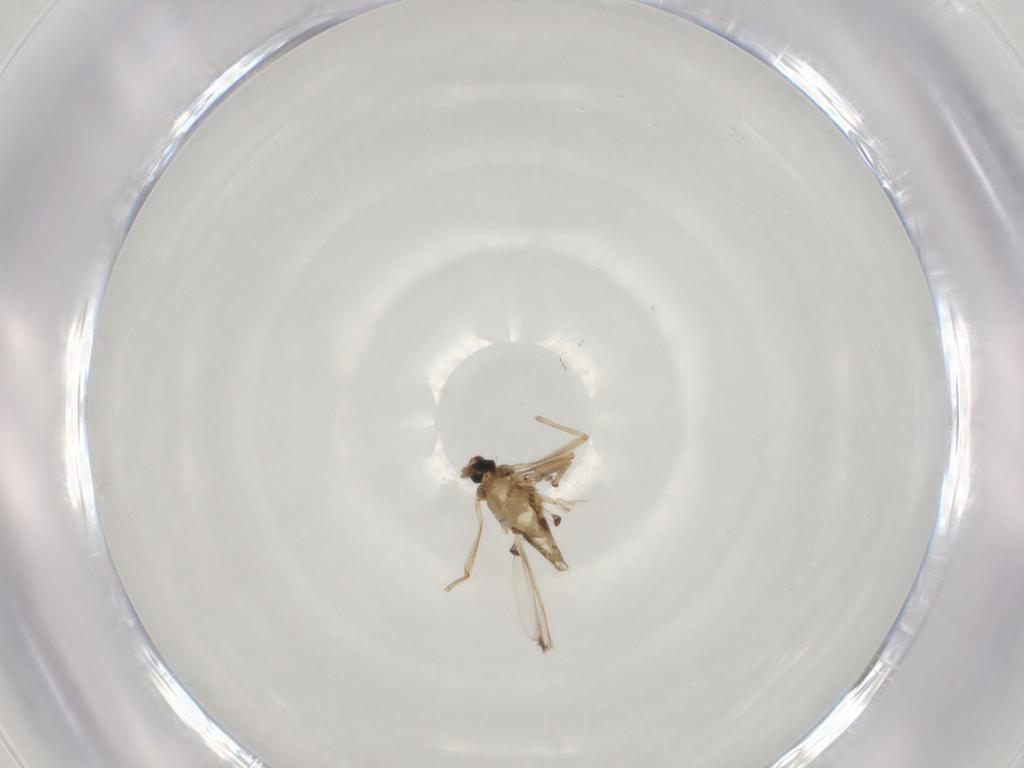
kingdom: Animalia
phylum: Arthropoda
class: Insecta
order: Diptera
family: Chironomidae
